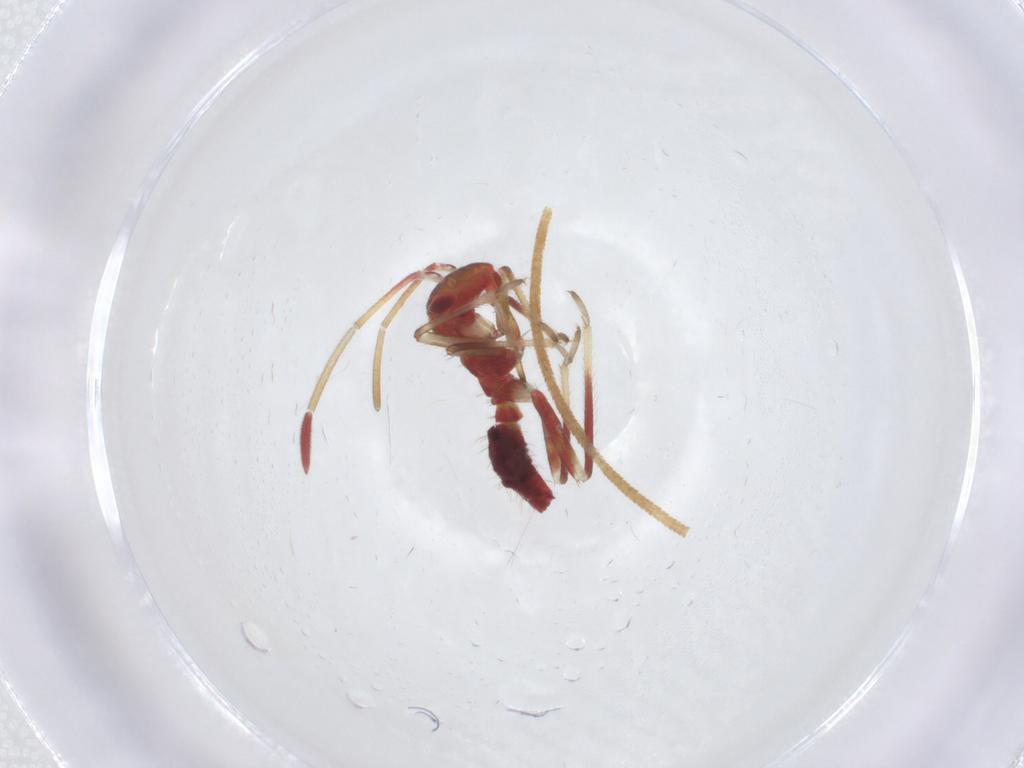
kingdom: Animalia
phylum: Arthropoda
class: Insecta
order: Hemiptera
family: Miridae
